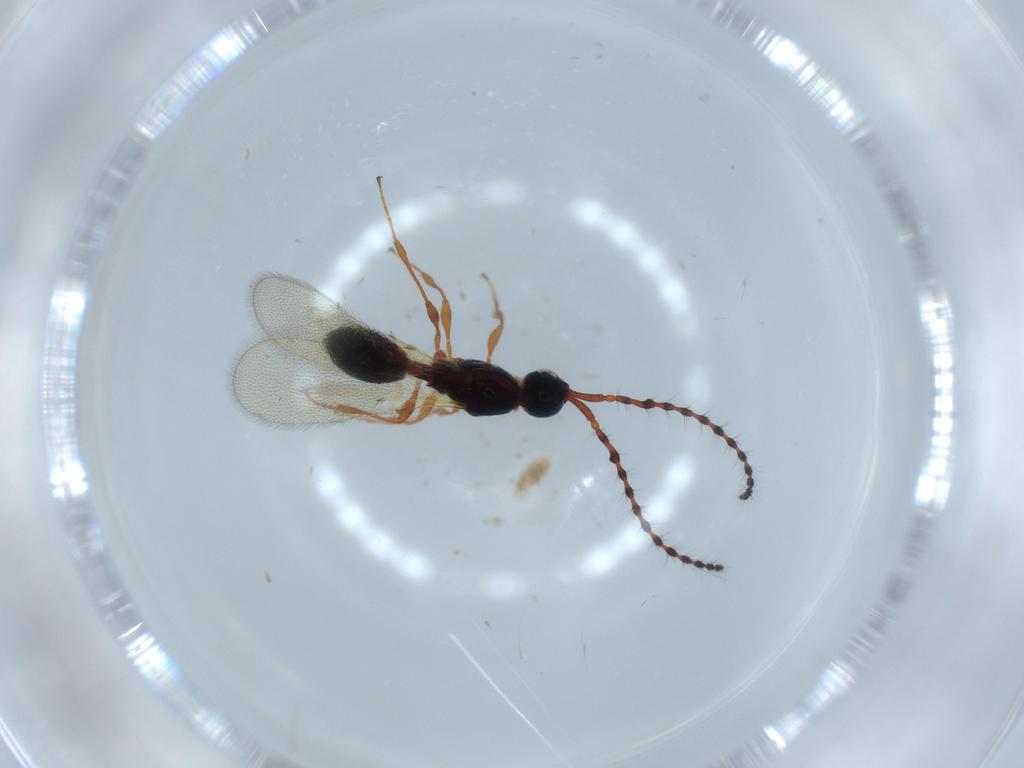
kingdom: Animalia
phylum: Arthropoda
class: Insecta
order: Hymenoptera
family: Diapriidae
